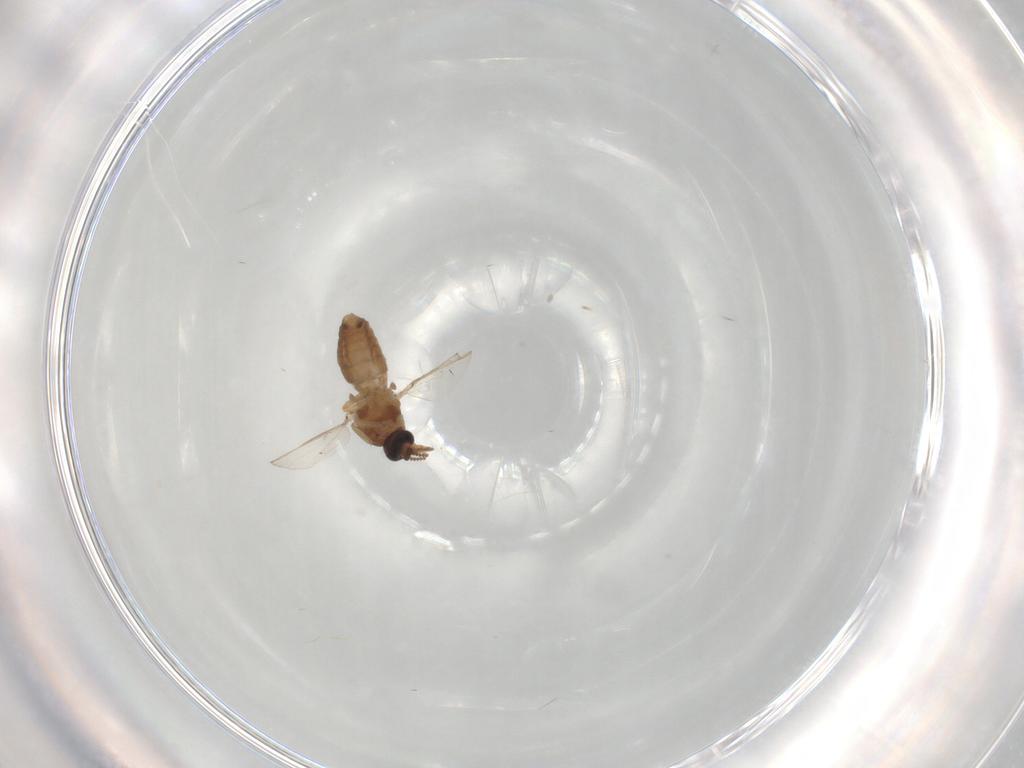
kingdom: Animalia
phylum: Arthropoda
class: Insecta
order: Diptera
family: Ceratopogonidae
